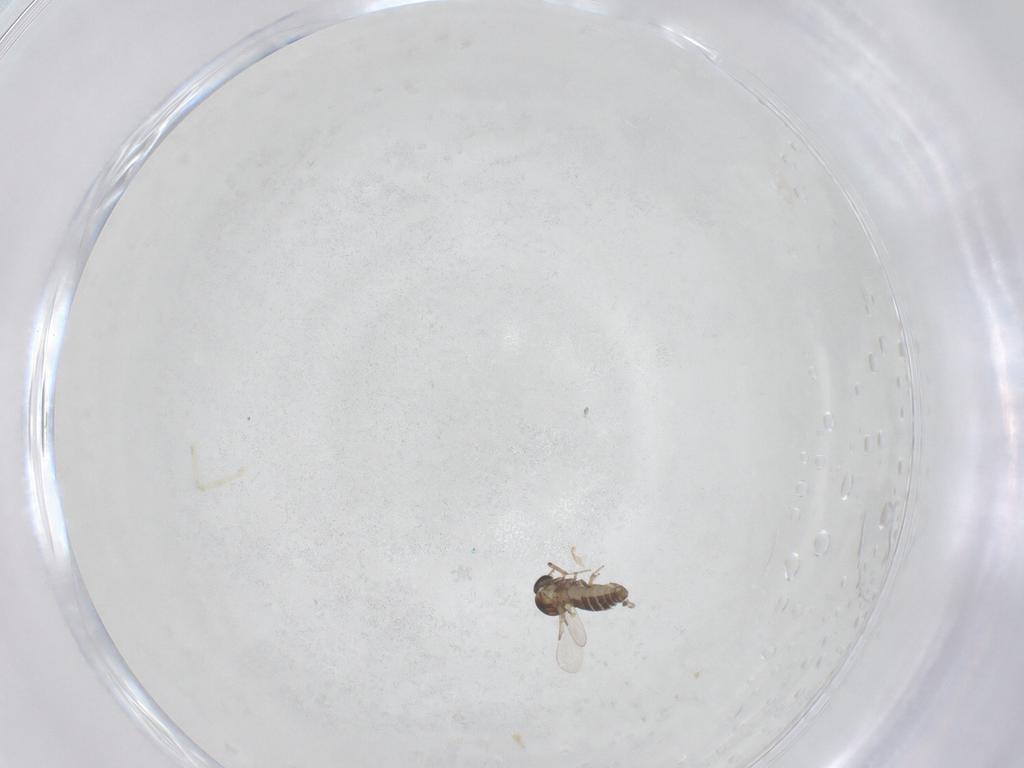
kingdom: Animalia
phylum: Arthropoda
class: Insecta
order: Diptera
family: Ceratopogonidae
